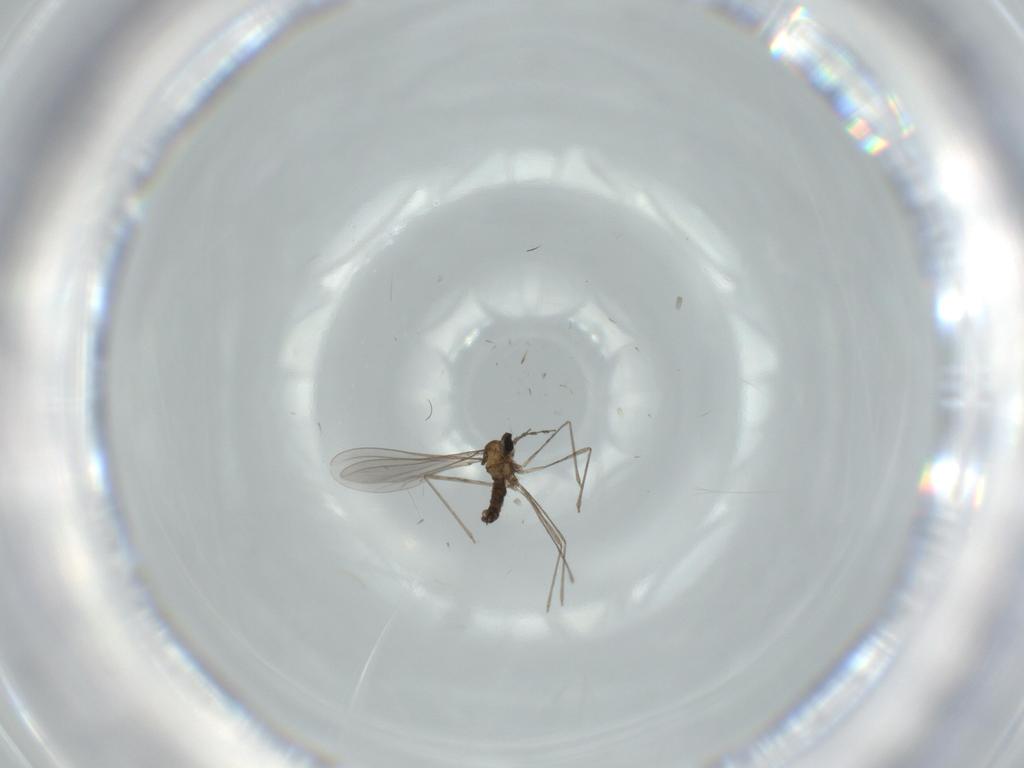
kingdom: Animalia
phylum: Arthropoda
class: Insecta
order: Diptera
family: Cecidomyiidae
